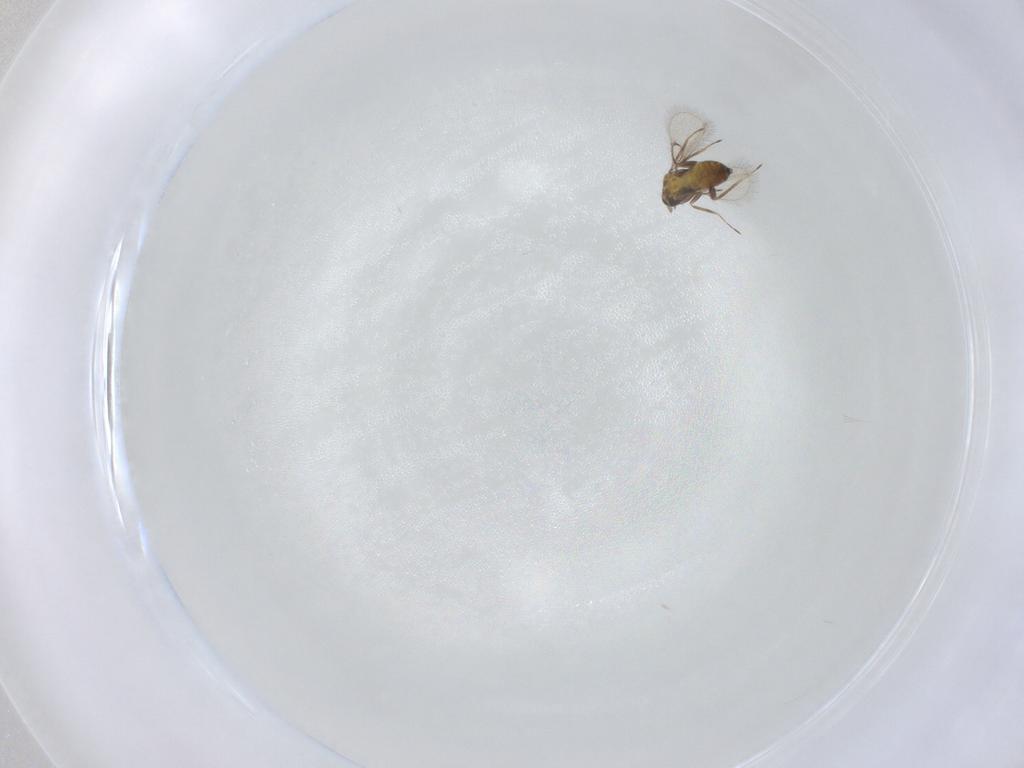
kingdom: Animalia
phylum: Arthropoda
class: Insecta
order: Hymenoptera
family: Trichogrammatidae
